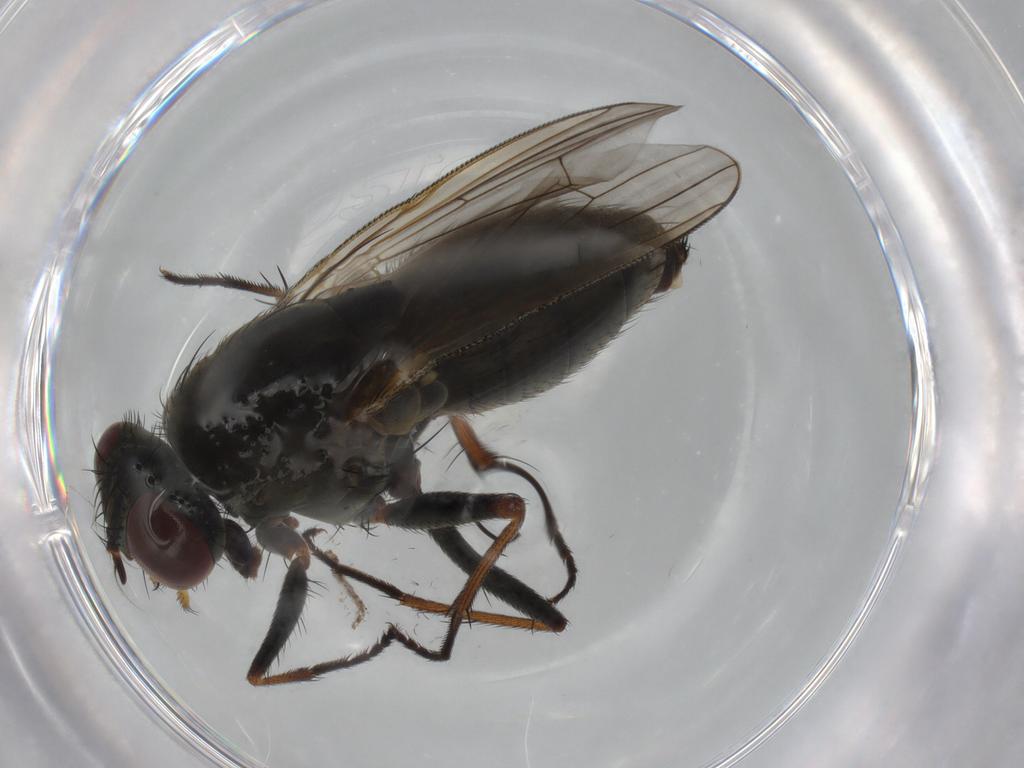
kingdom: Animalia
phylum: Arthropoda
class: Insecta
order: Diptera
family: Muscidae
